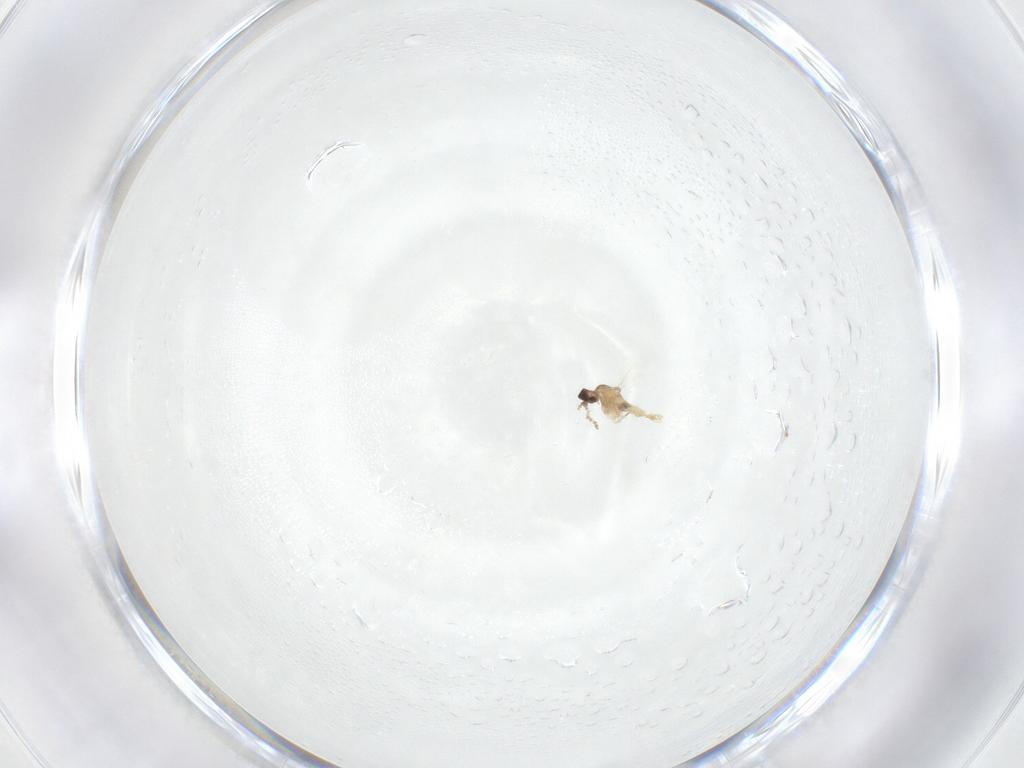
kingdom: Animalia
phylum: Arthropoda
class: Insecta
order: Diptera
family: Cecidomyiidae
